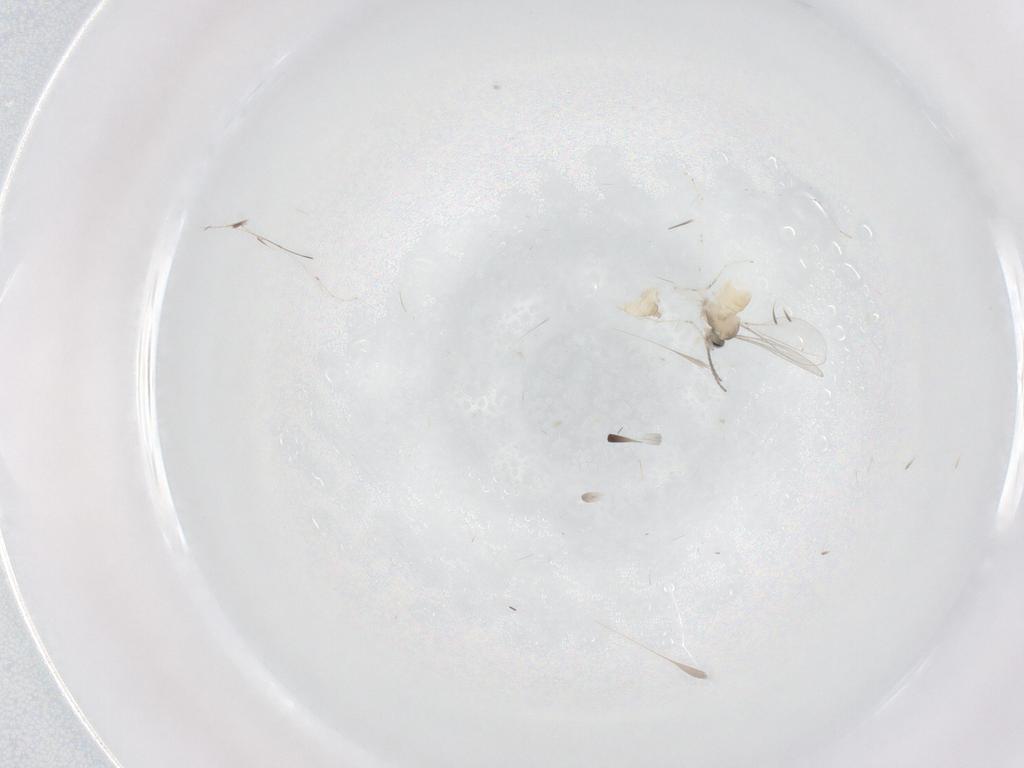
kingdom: Animalia
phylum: Arthropoda
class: Insecta
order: Diptera
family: Cecidomyiidae
